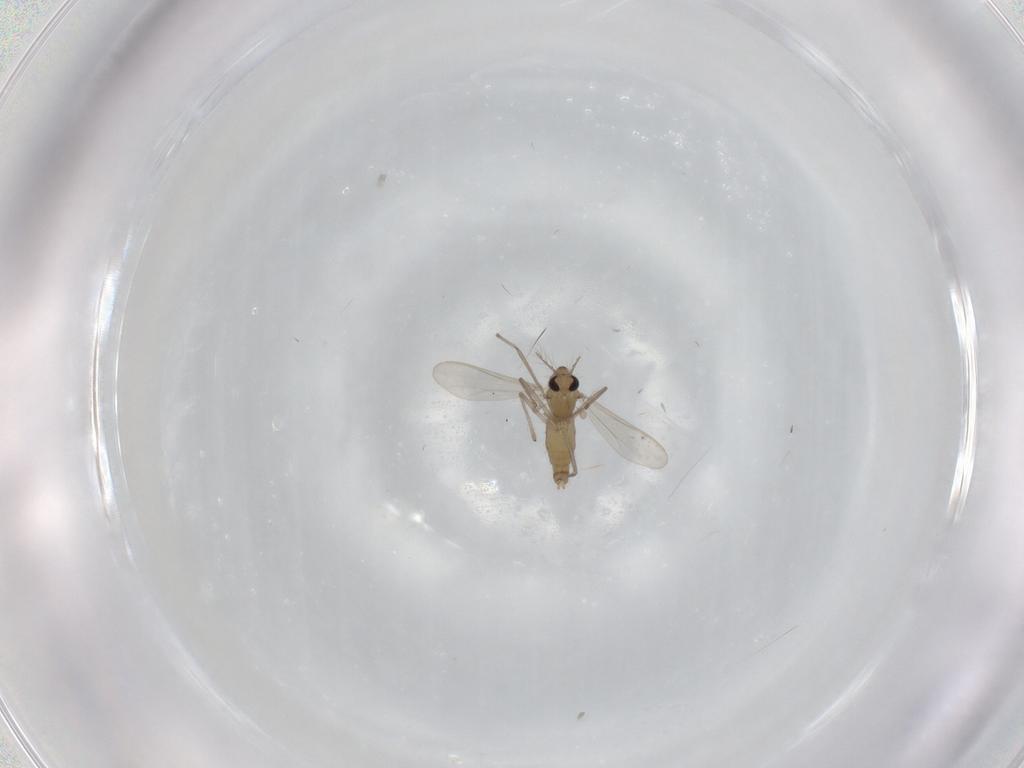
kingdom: Animalia
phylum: Arthropoda
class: Insecta
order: Diptera
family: Chironomidae
